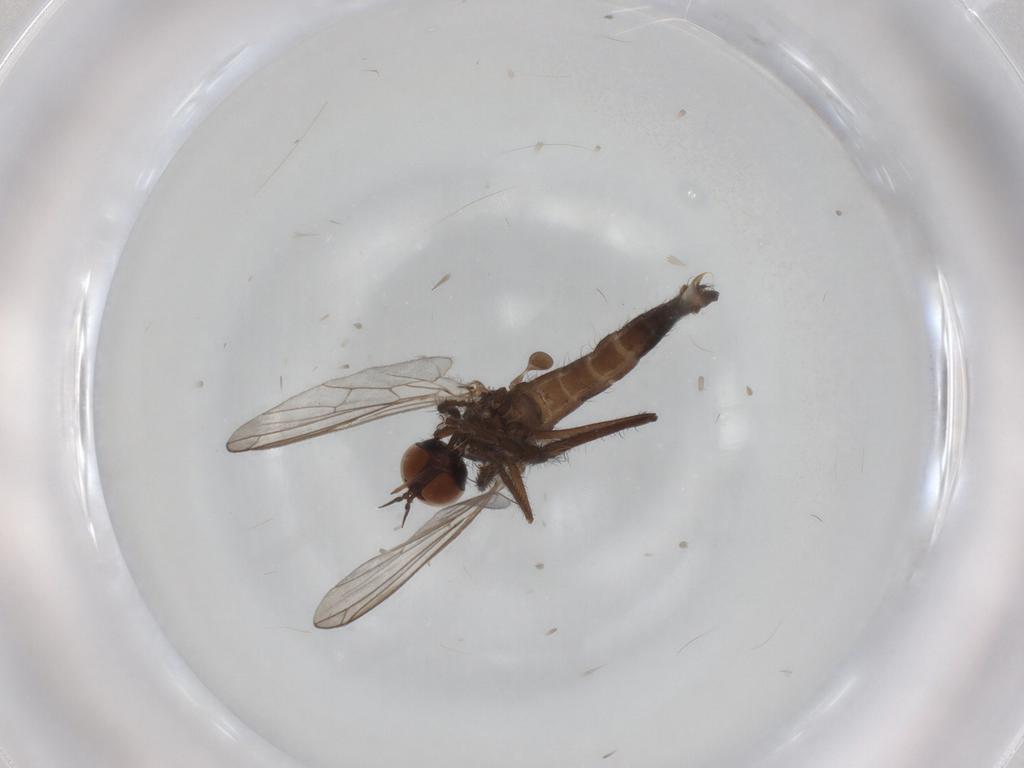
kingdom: Animalia
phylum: Arthropoda
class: Insecta
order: Diptera
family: Empididae
